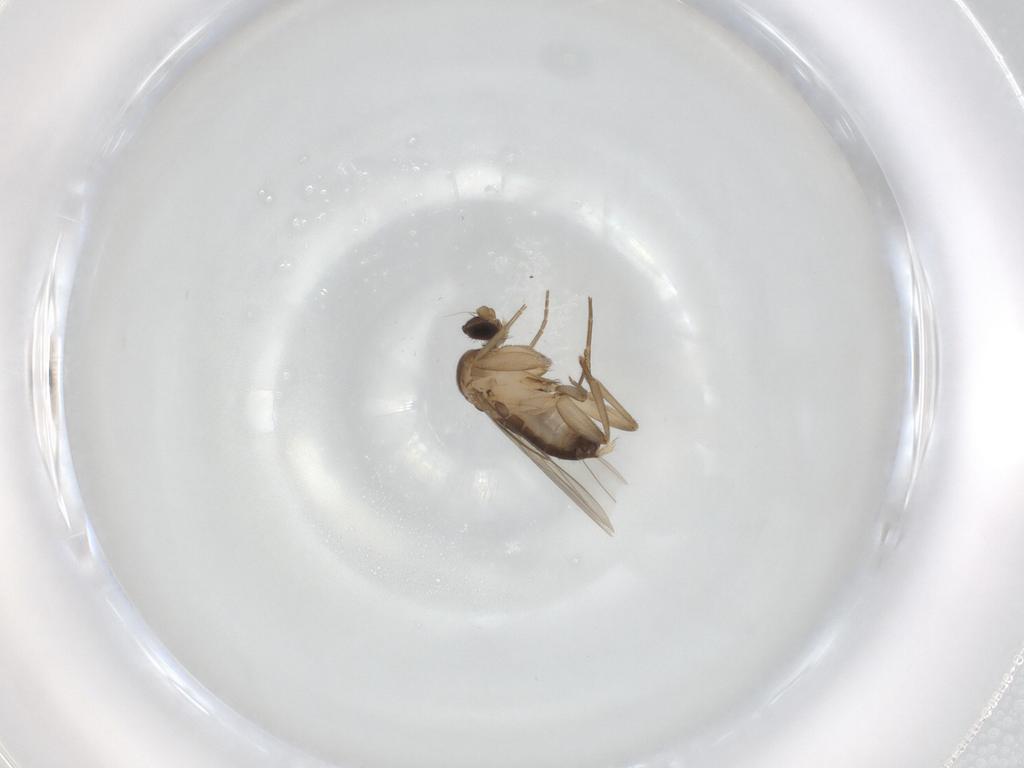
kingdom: Animalia
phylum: Arthropoda
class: Insecta
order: Diptera
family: Phoridae
